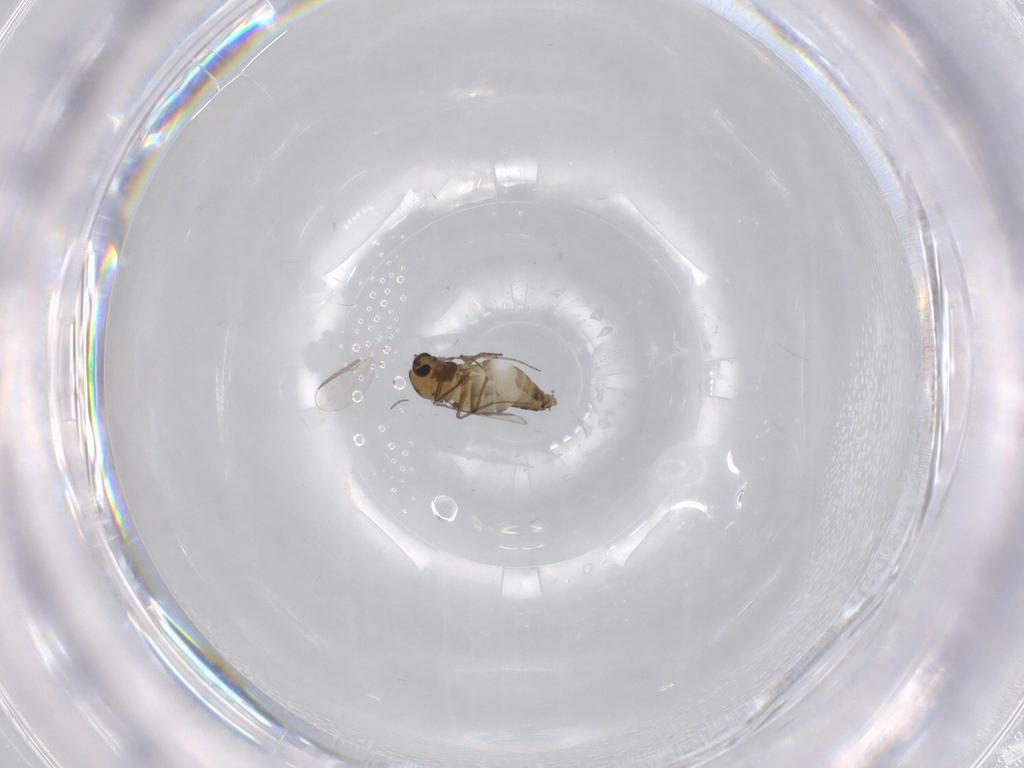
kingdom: Animalia
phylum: Arthropoda
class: Insecta
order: Diptera
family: Chironomidae
